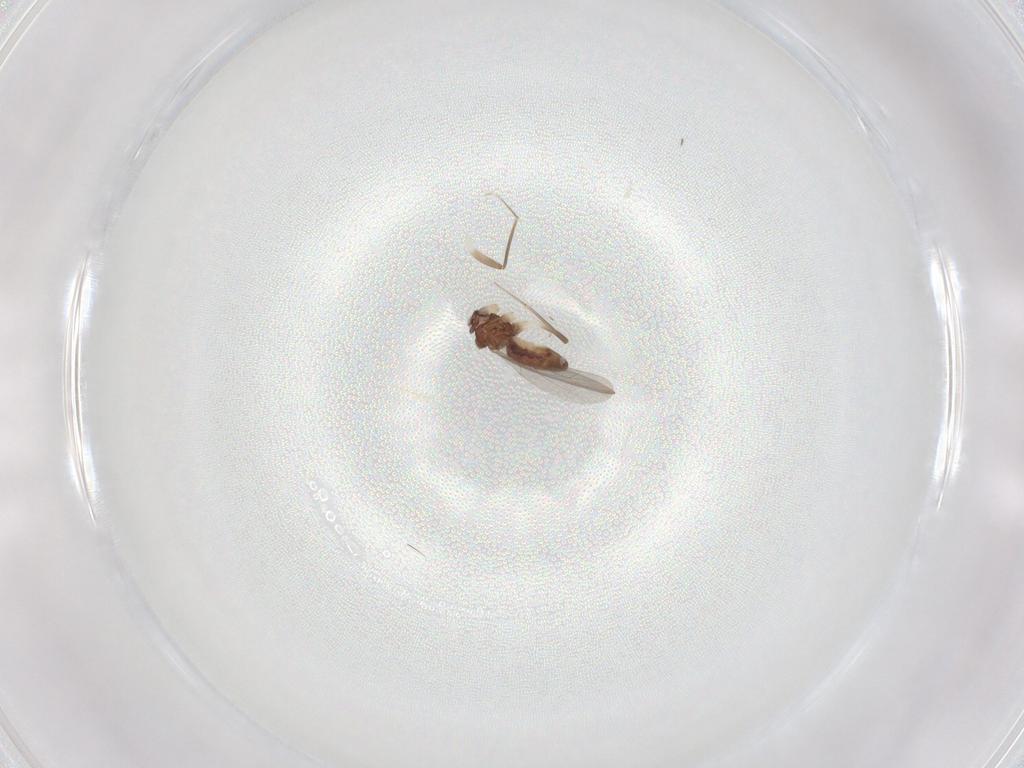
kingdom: Animalia
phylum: Arthropoda
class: Insecta
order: Psocodea
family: Lepidopsocidae
